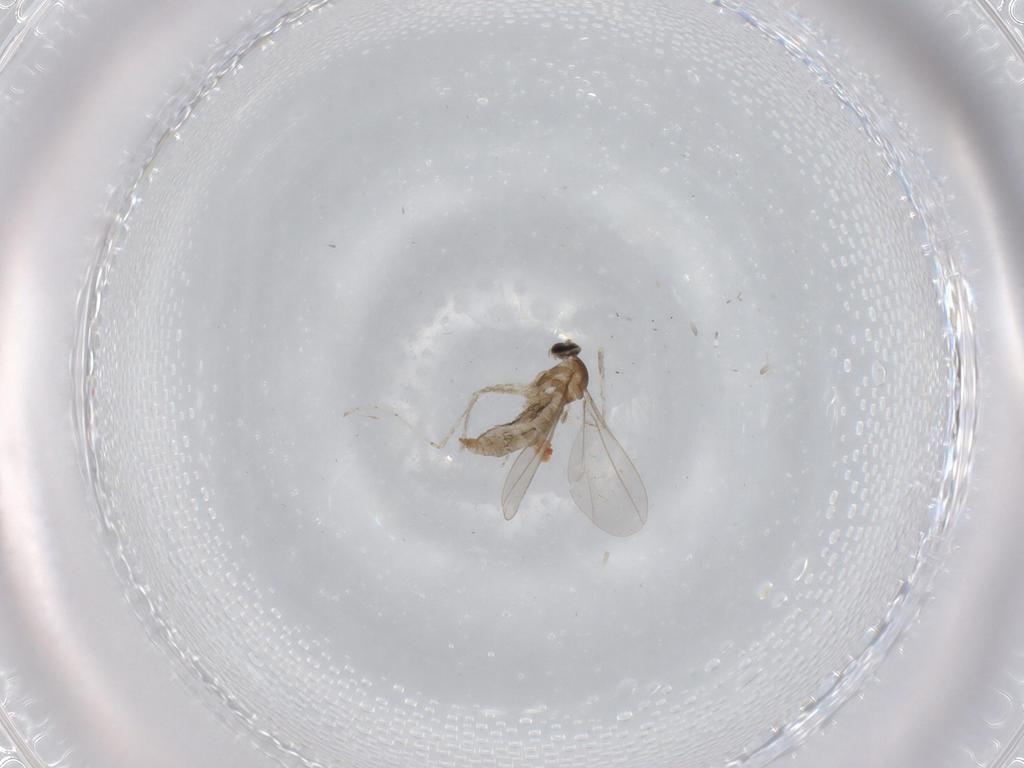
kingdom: Animalia
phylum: Arthropoda
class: Insecta
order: Diptera
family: Cecidomyiidae
